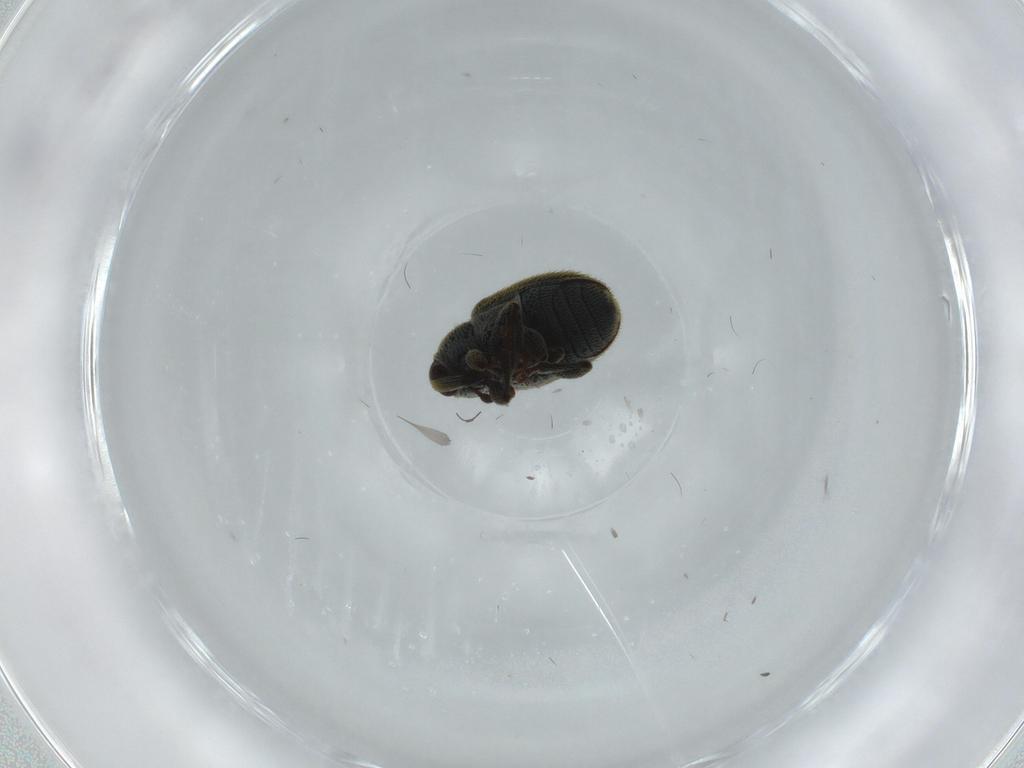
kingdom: Animalia
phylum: Arthropoda
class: Insecta
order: Coleoptera
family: Curculionidae
